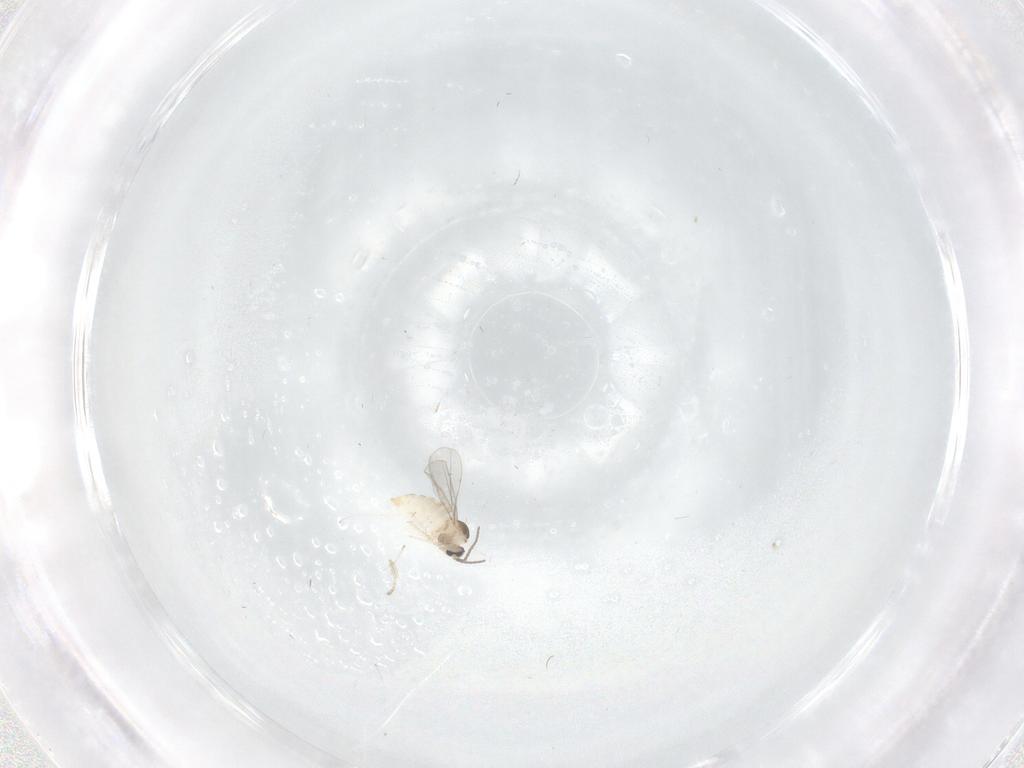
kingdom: Animalia
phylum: Arthropoda
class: Insecta
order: Diptera
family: Cecidomyiidae
